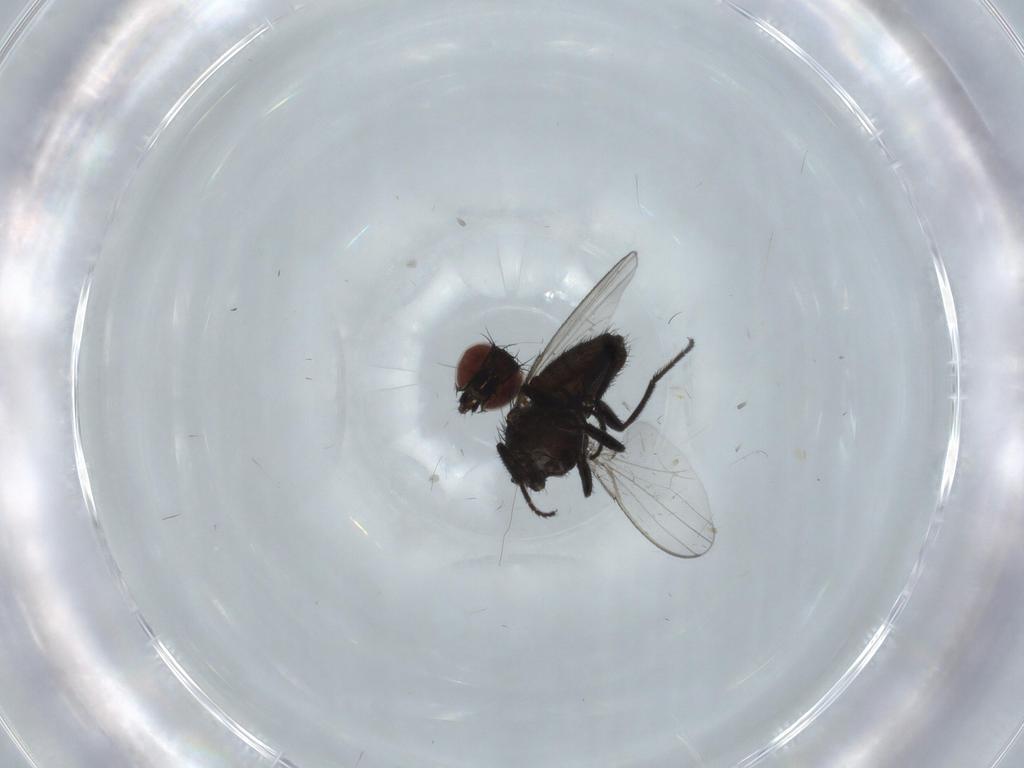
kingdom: Animalia
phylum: Arthropoda
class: Insecta
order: Diptera
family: Milichiidae
